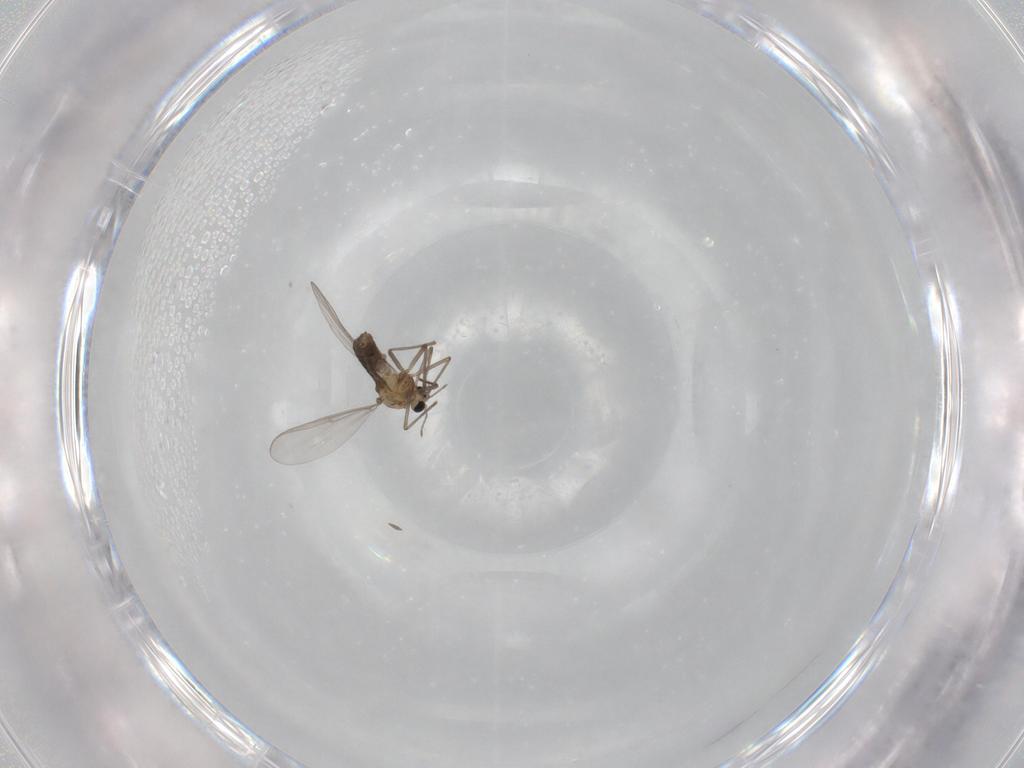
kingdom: Animalia
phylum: Arthropoda
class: Insecta
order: Diptera
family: Chironomidae
